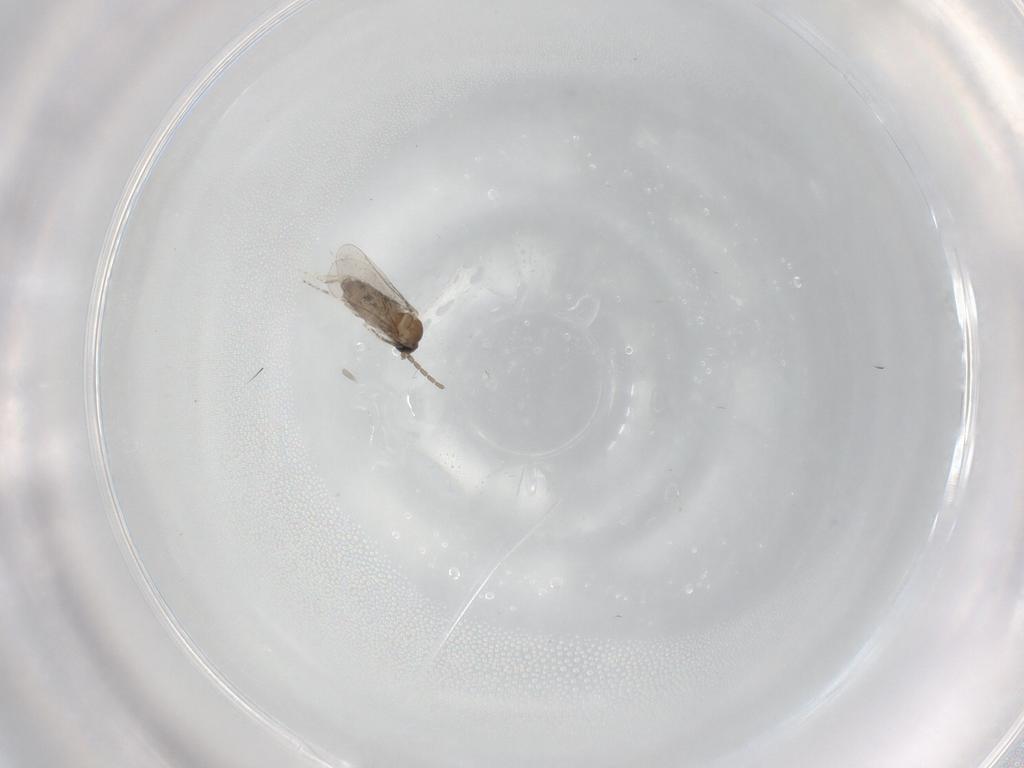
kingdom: Animalia
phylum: Arthropoda
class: Insecta
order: Diptera
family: Cecidomyiidae
